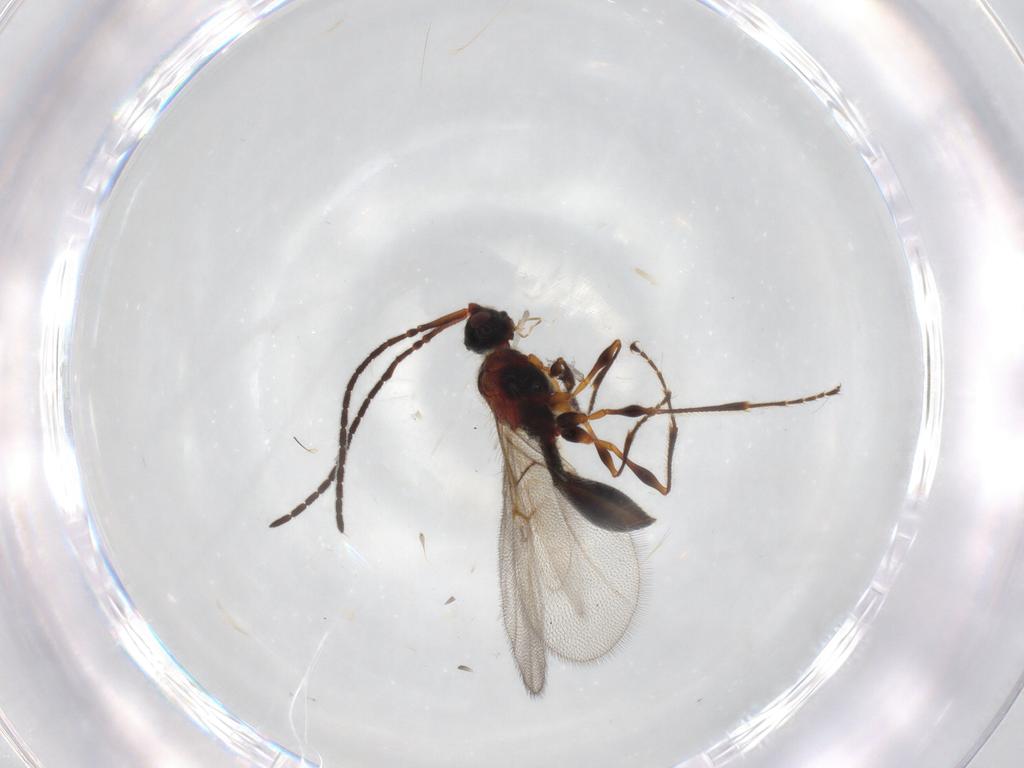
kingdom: Animalia
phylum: Arthropoda
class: Insecta
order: Hymenoptera
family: Diapriidae
